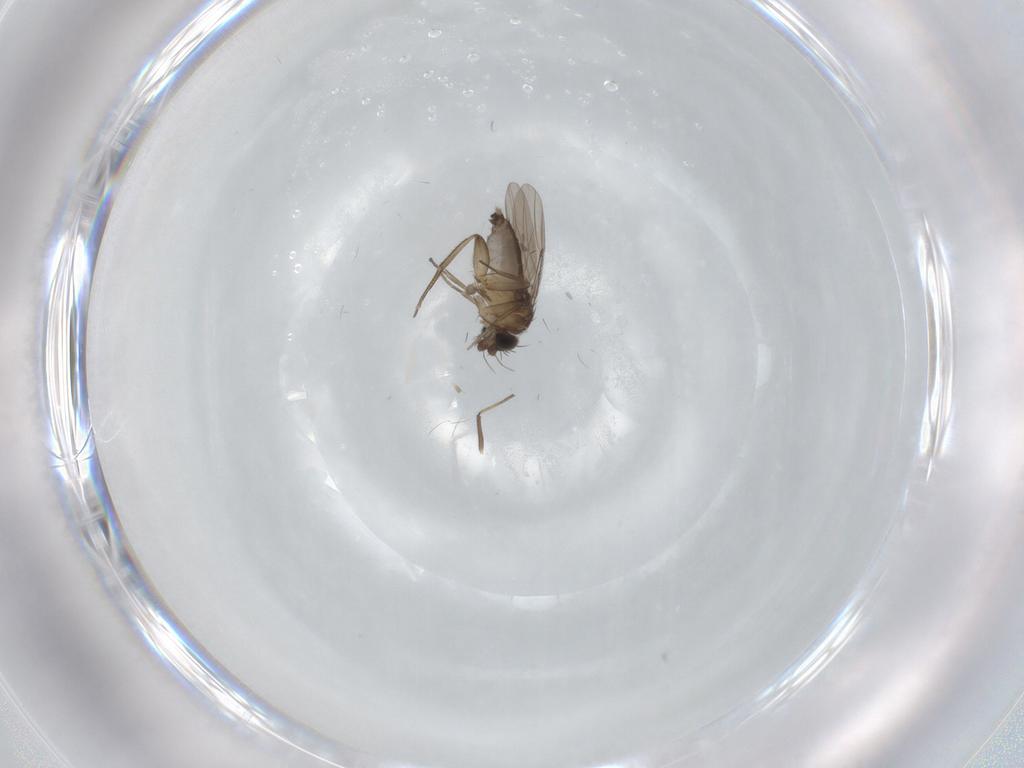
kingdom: Animalia
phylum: Arthropoda
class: Insecta
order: Diptera
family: Phoridae
